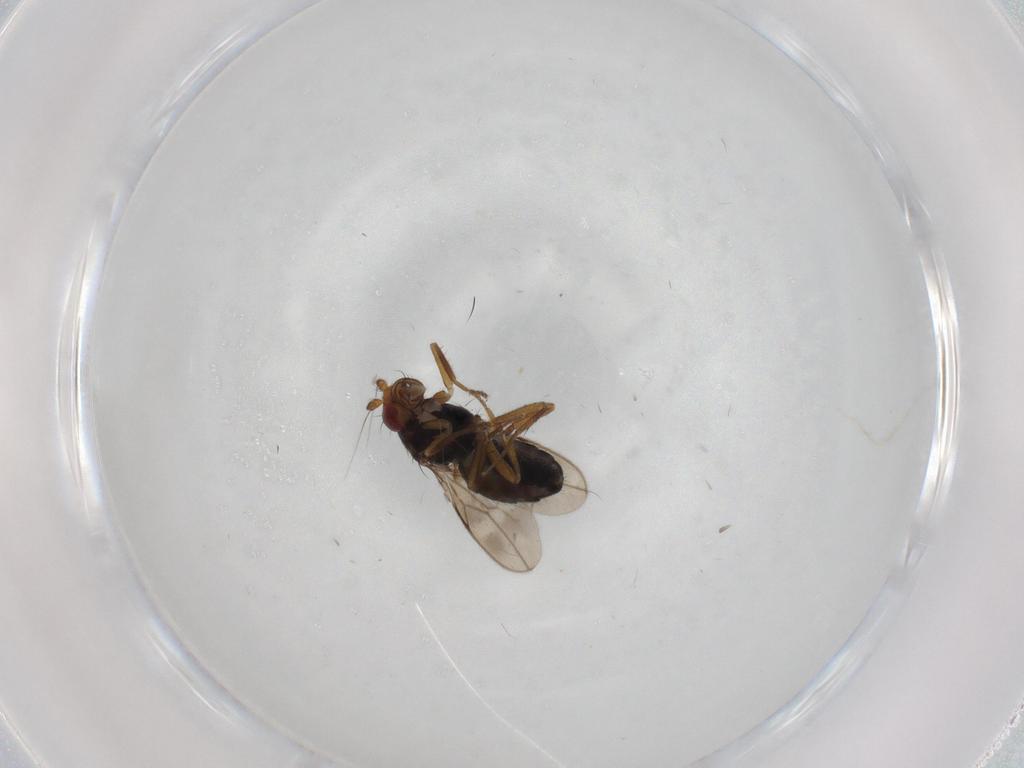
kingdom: Animalia
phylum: Arthropoda
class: Insecta
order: Diptera
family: Sphaeroceridae
